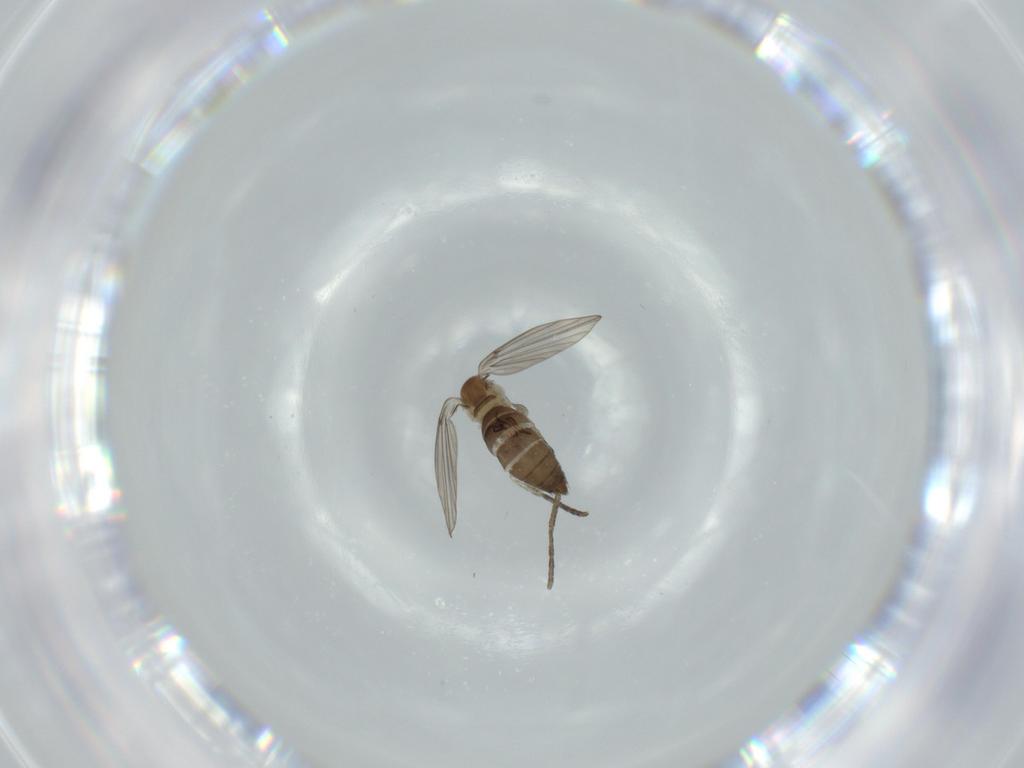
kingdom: Animalia
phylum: Arthropoda
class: Insecta
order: Diptera
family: Psychodidae
